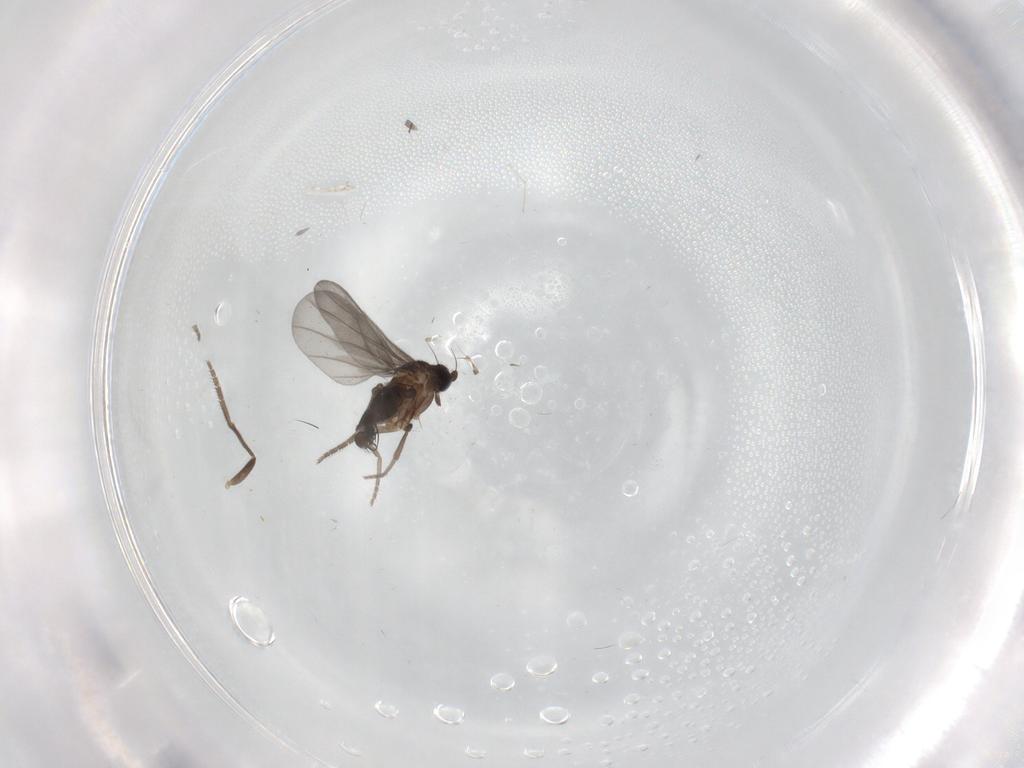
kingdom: Animalia
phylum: Arthropoda
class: Insecta
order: Diptera
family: Phoridae
